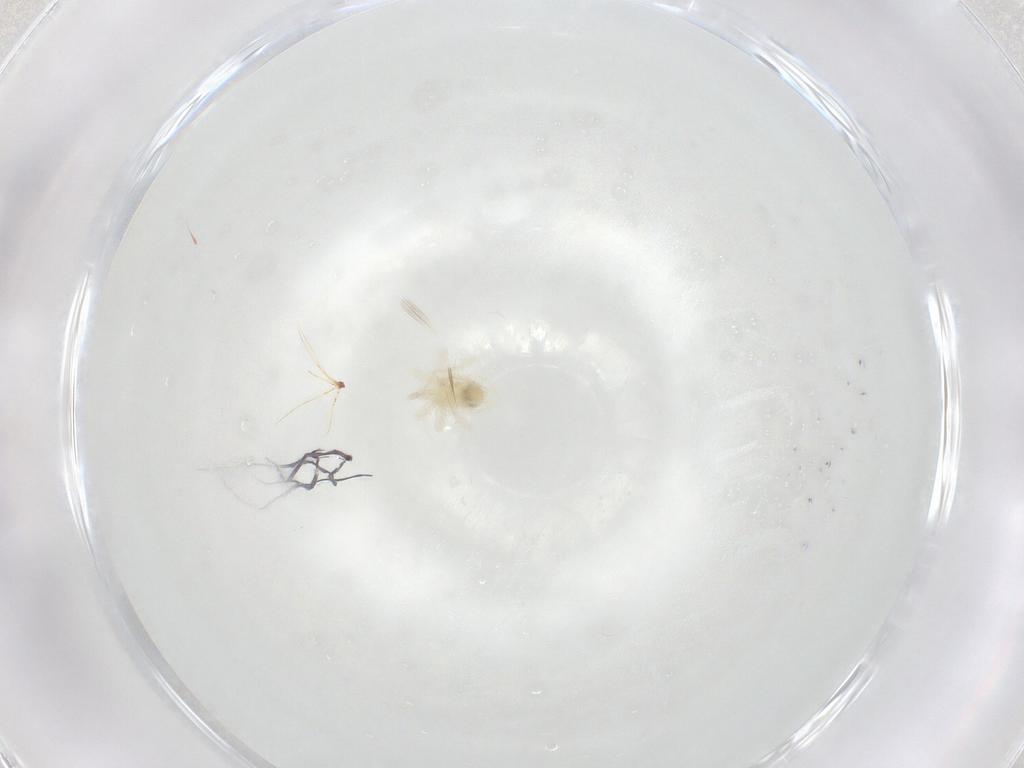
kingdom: Animalia
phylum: Arthropoda
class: Arachnida
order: Trombidiformes
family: Anystidae
